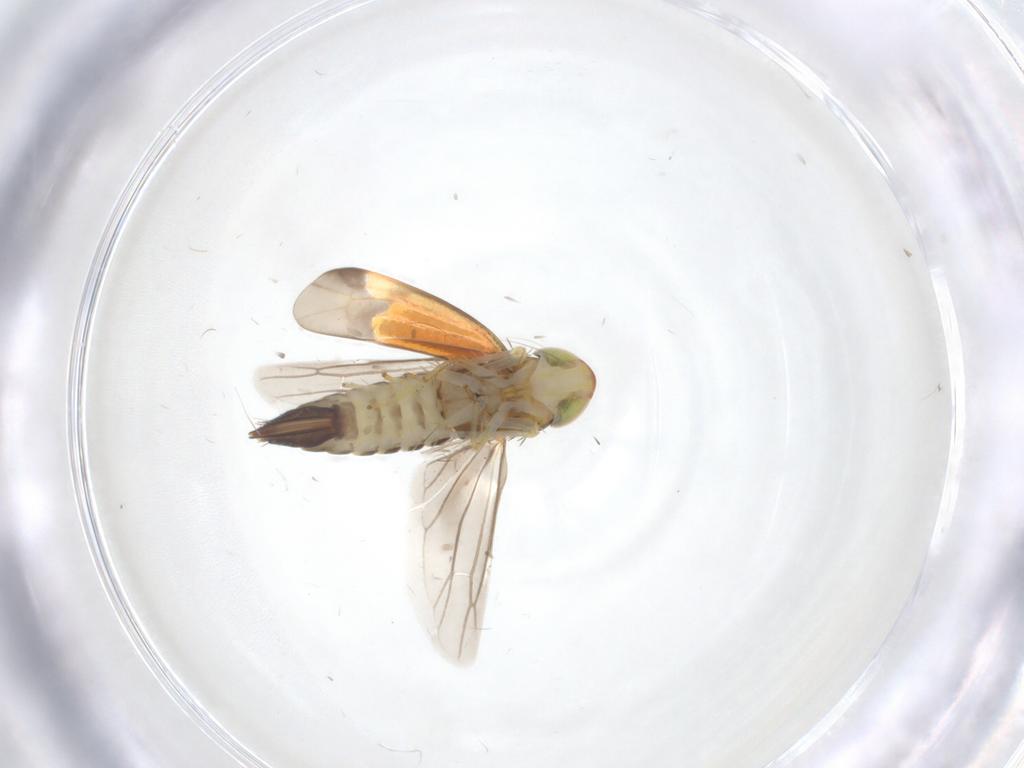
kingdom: Animalia
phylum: Arthropoda
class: Insecta
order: Hemiptera
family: Cicadellidae
